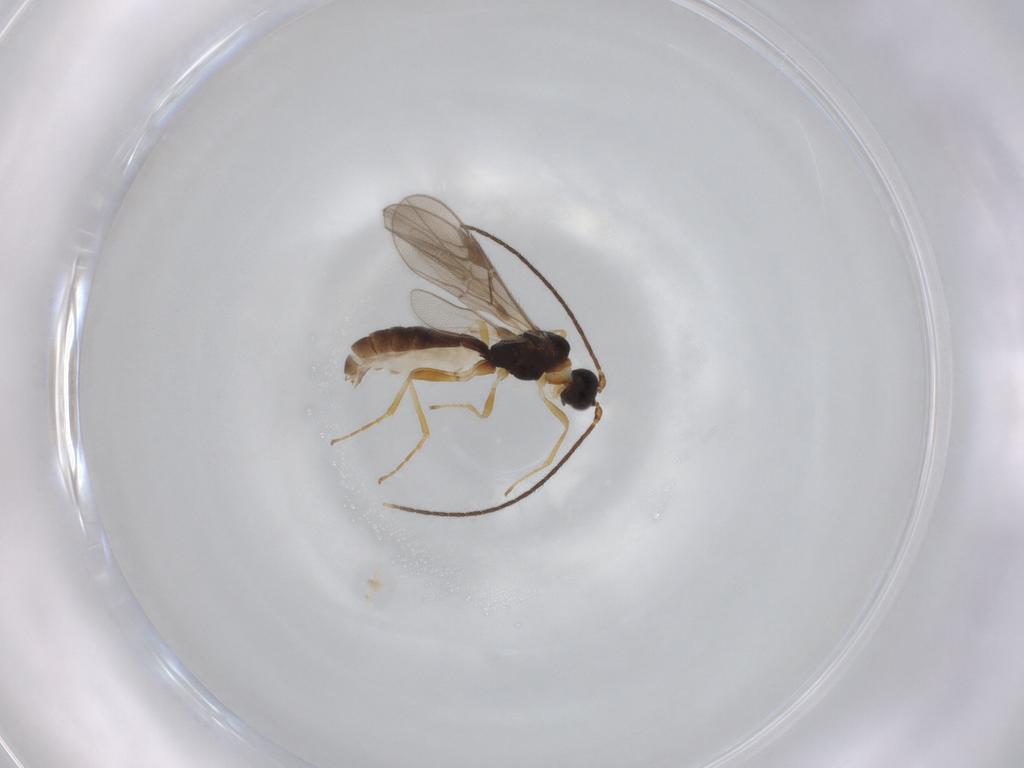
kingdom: Animalia
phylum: Arthropoda
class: Insecta
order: Hymenoptera
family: Braconidae
